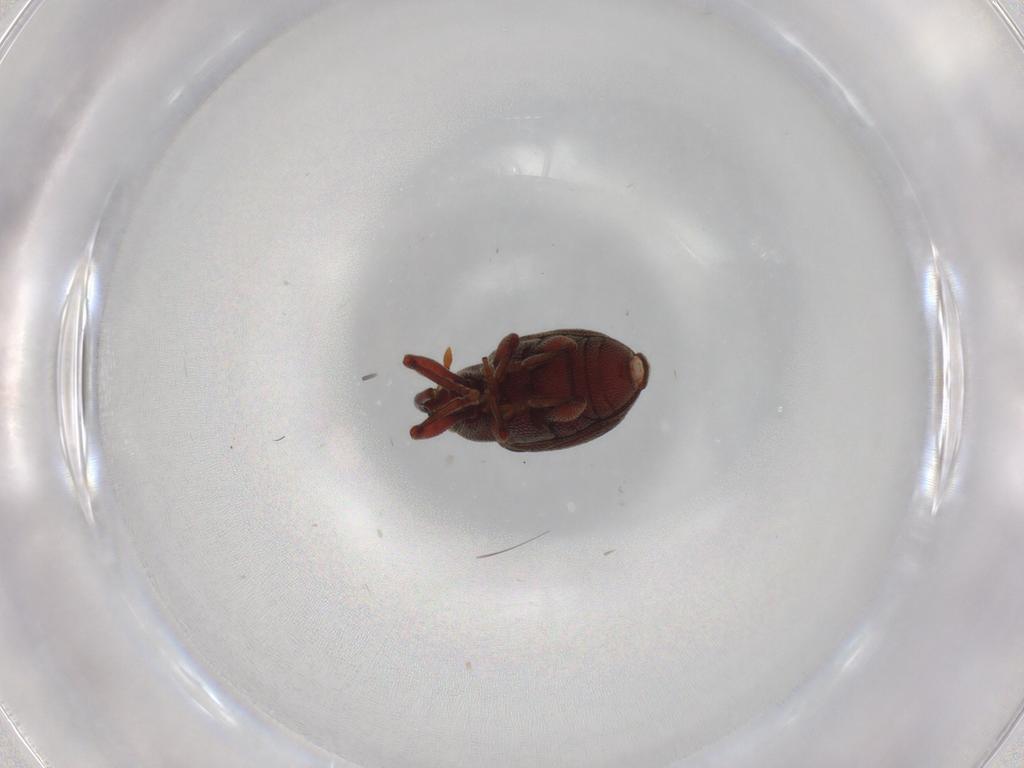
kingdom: Animalia
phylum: Arthropoda
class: Insecta
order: Coleoptera
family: Curculionidae
